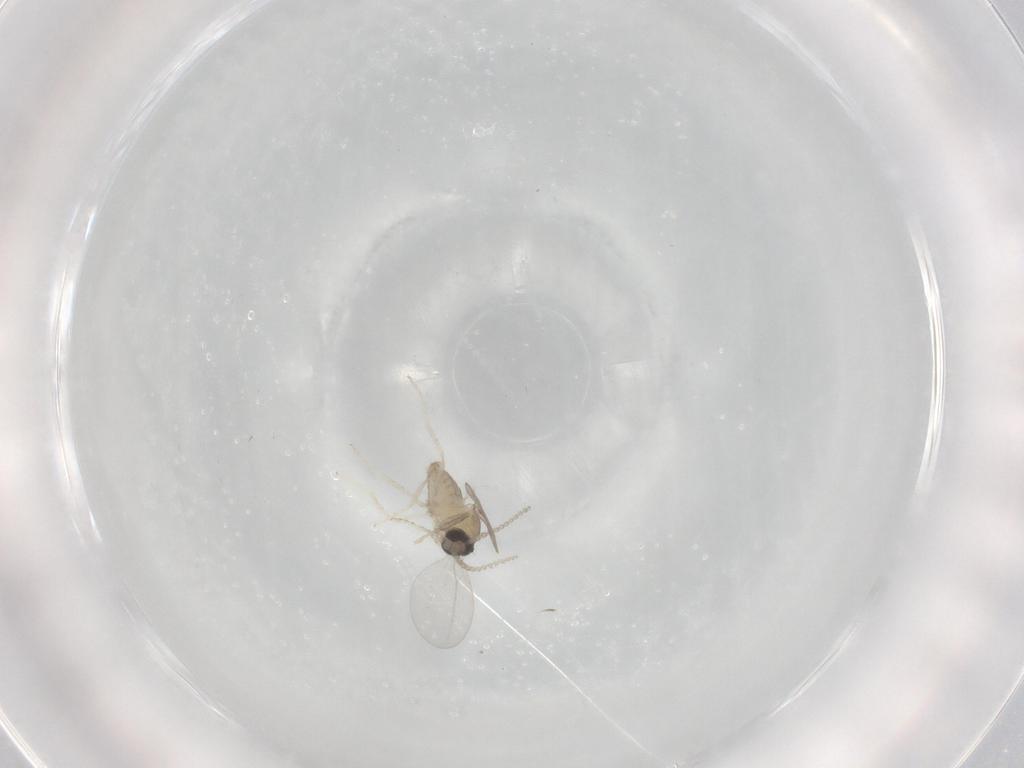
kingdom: Animalia
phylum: Arthropoda
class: Insecta
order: Diptera
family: Cecidomyiidae
